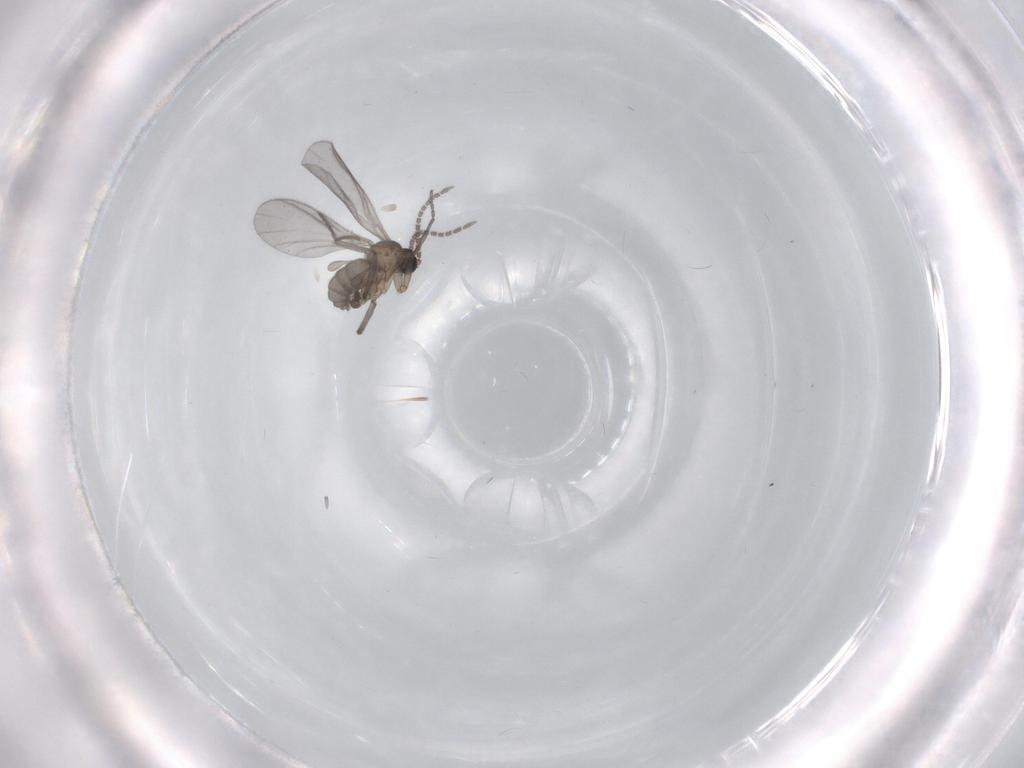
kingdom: Animalia
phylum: Arthropoda
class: Insecta
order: Diptera
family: Sciaridae
